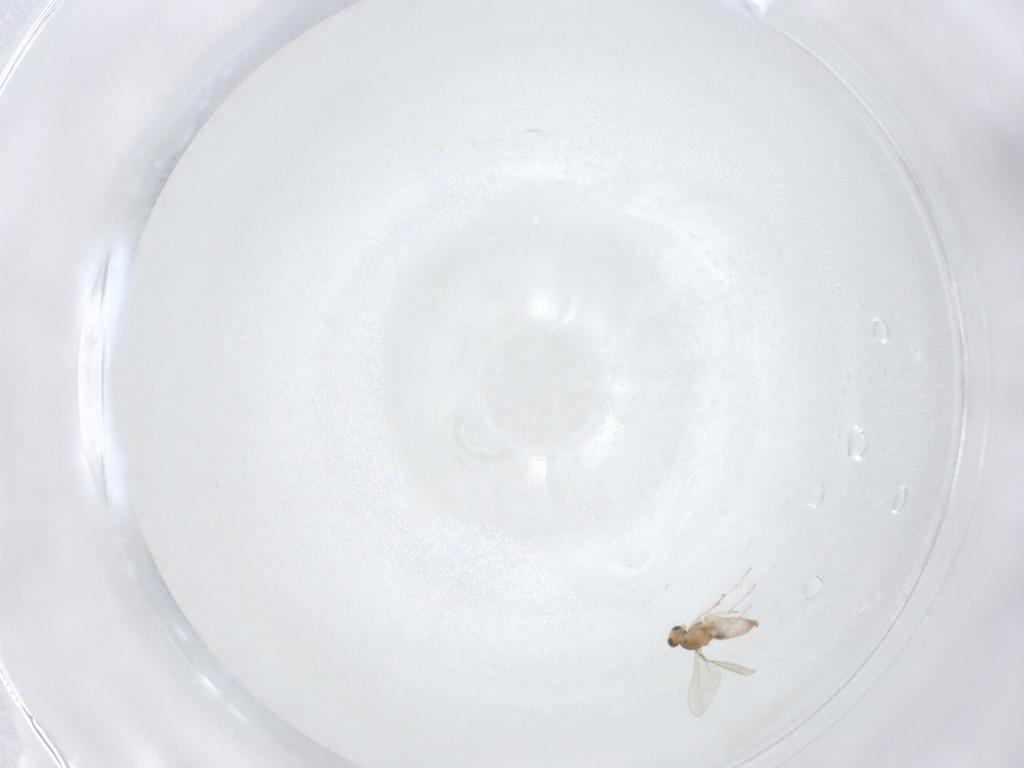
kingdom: Animalia
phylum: Arthropoda
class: Insecta
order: Diptera
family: Cecidomyiidae
